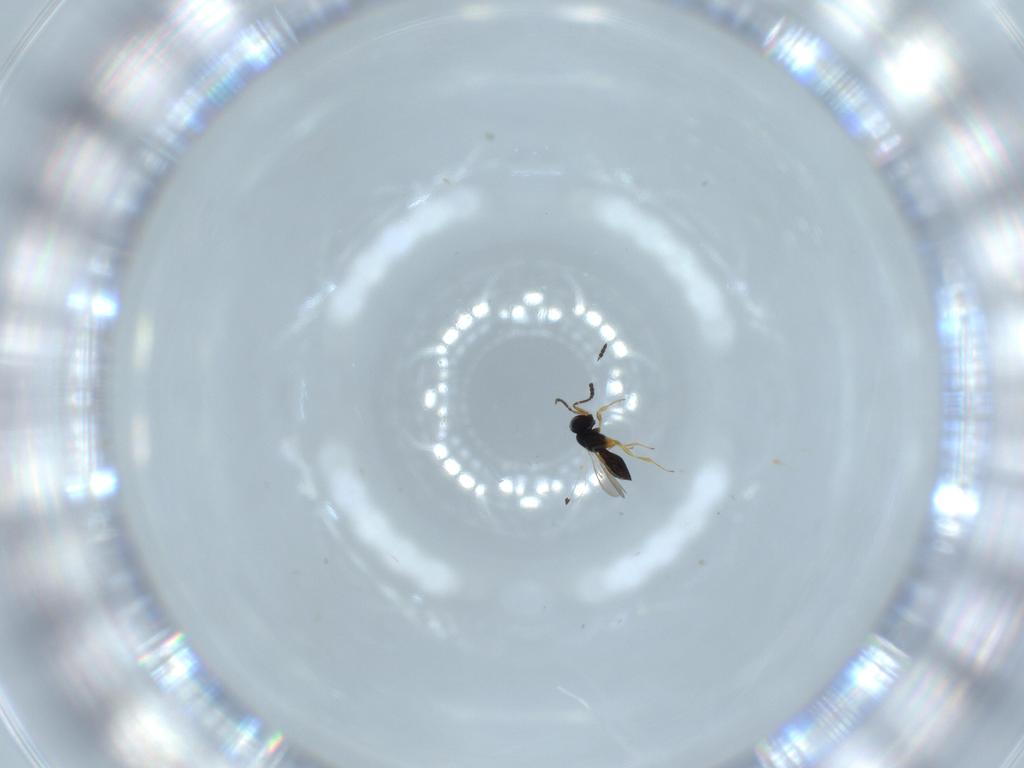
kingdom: Animalia
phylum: Arthropoda
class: Insecta
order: Hymenoptera
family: Scelionidae
